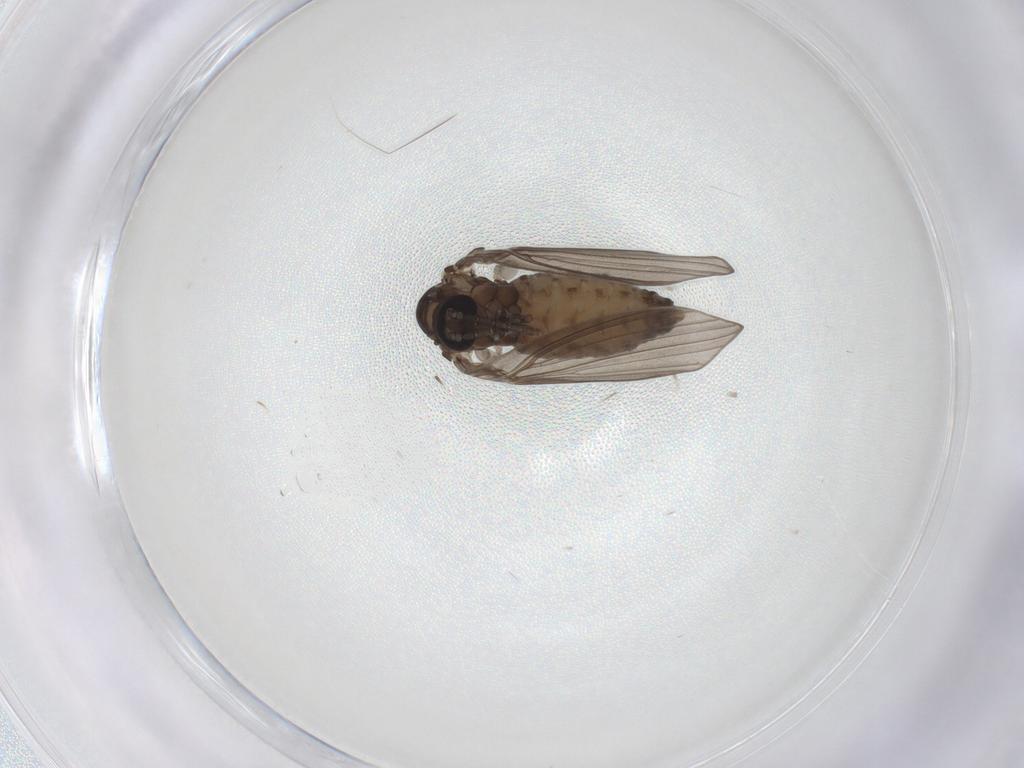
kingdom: Animalia
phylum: Arthropoda
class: Insecta
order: Diptera
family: Psychodidae
